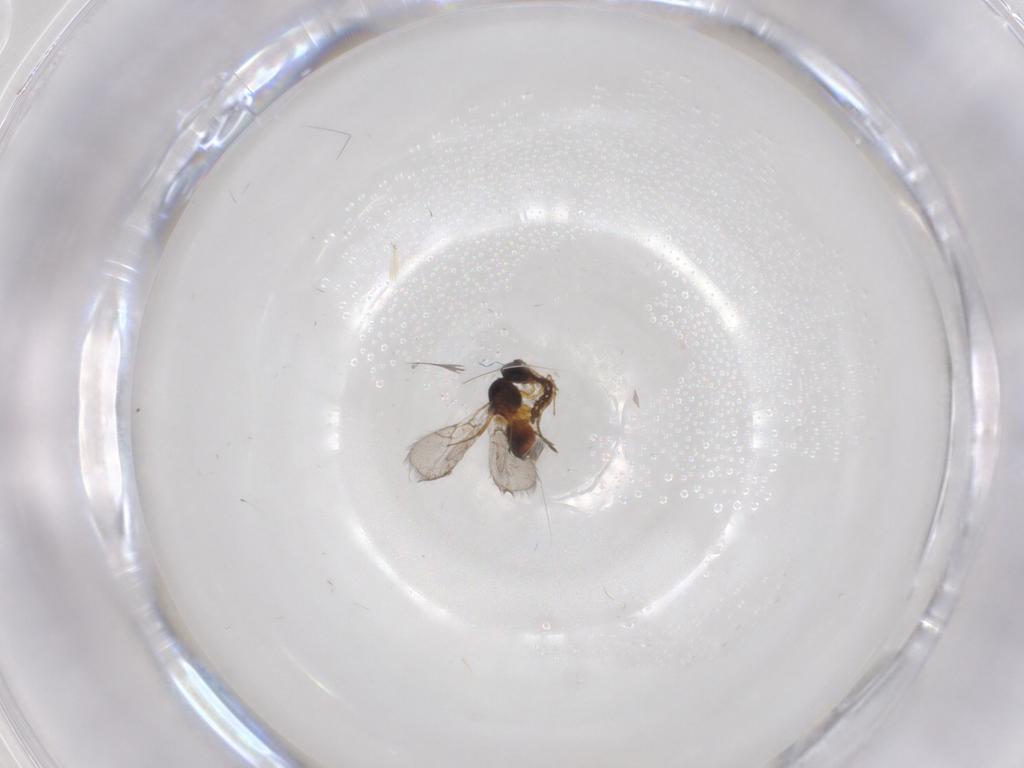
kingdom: Animalia
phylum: Arthropoda
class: Insecta
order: Hymenoptera
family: Figitidae
